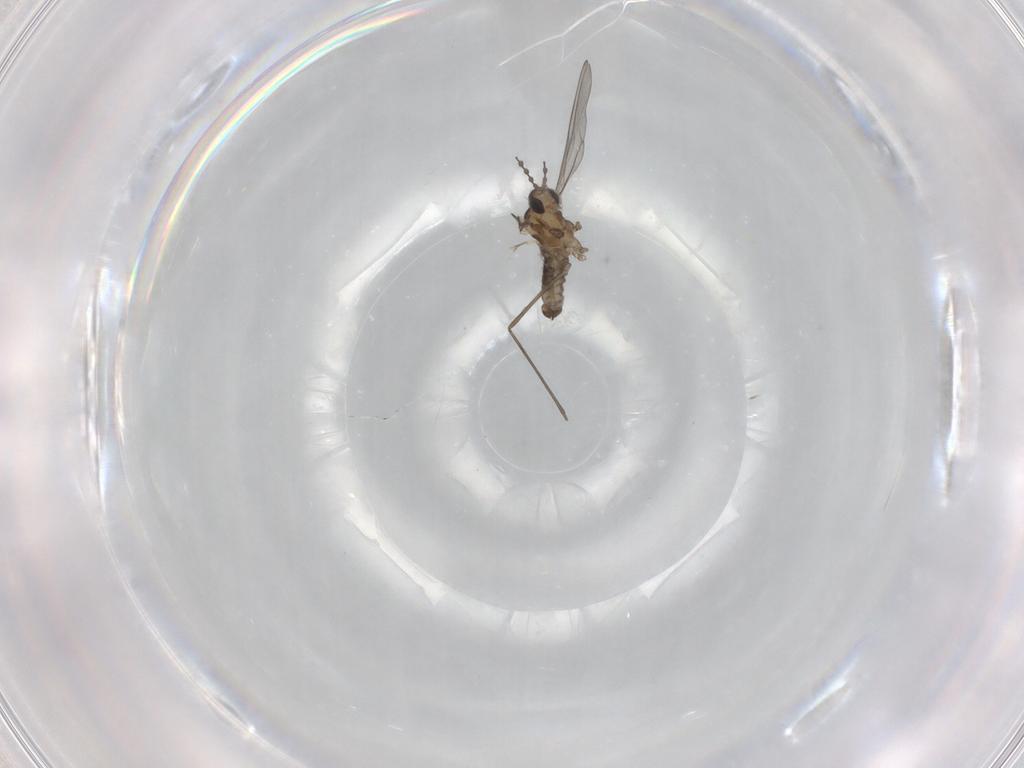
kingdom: Animalia
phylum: Arthropoda
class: Insecta
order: Diptera
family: Cecidomyiidae
